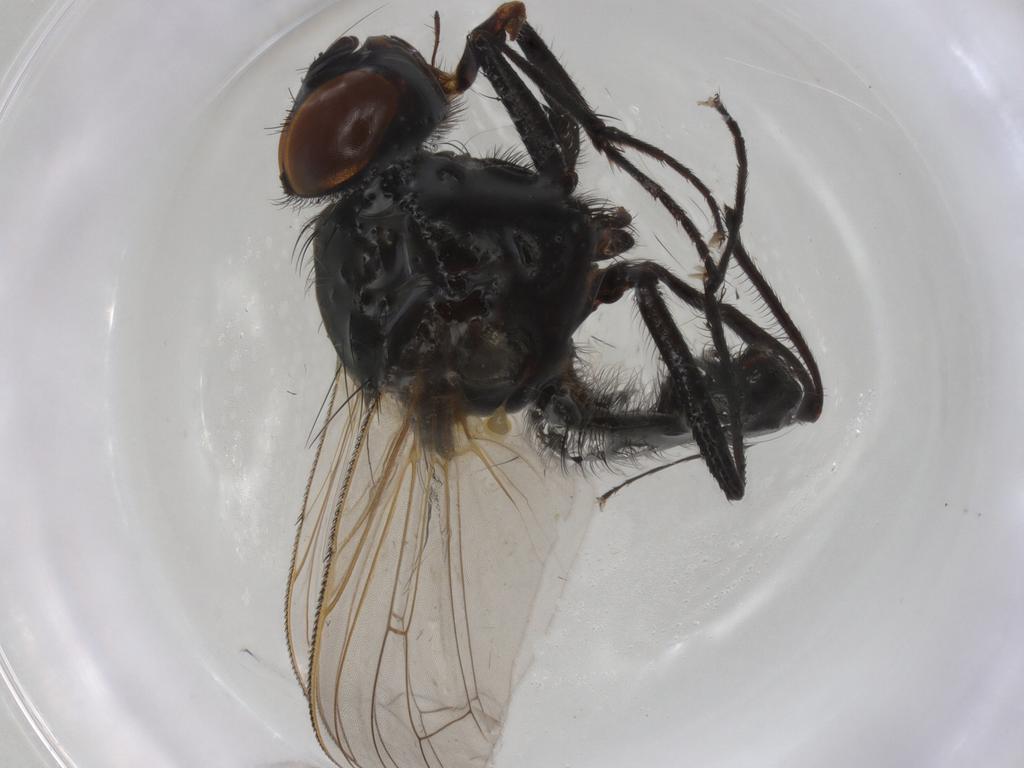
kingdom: Animalia
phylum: Arthropoda
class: Insecta
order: Diptera
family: Ceratopogonidae
